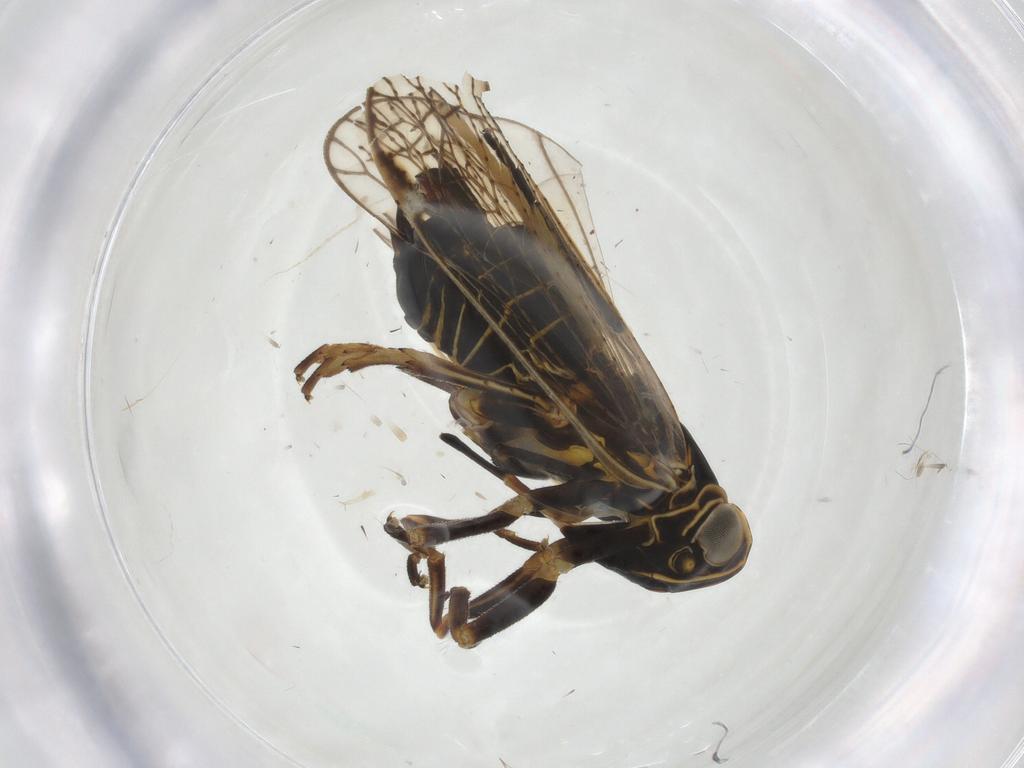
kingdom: Animalia
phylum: Arthropoda
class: Insecta
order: Hemiptera
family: Cixiidae
